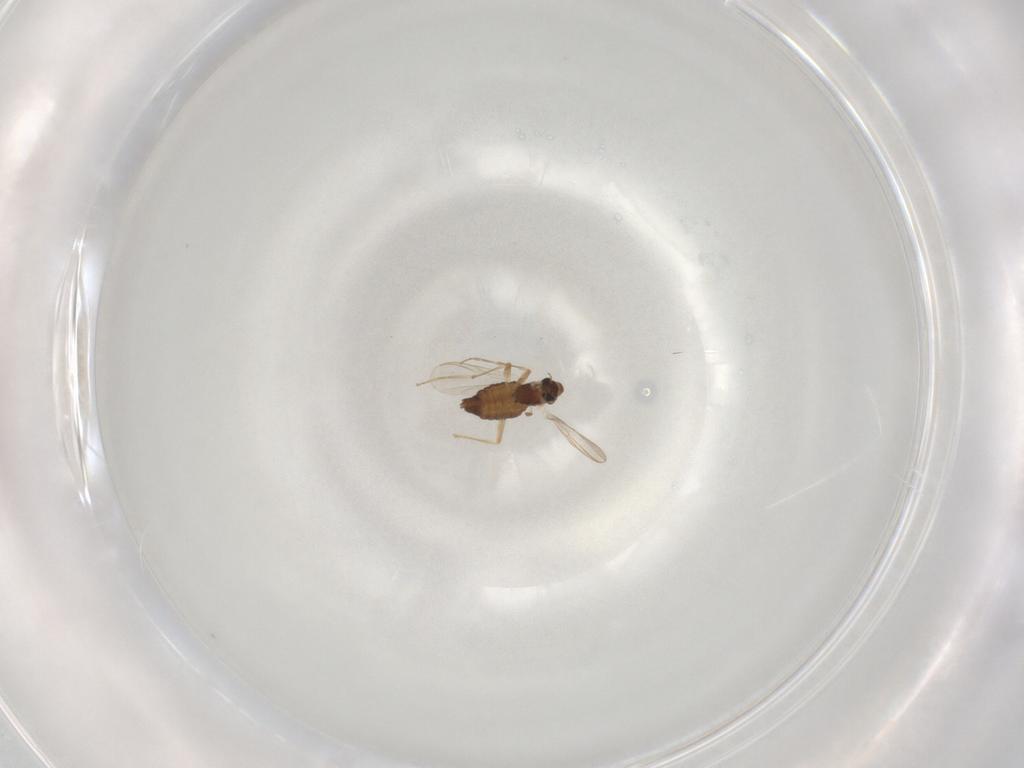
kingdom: Animalia
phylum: Arthropoda
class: Insecta
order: Diptera
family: Chironomidae
